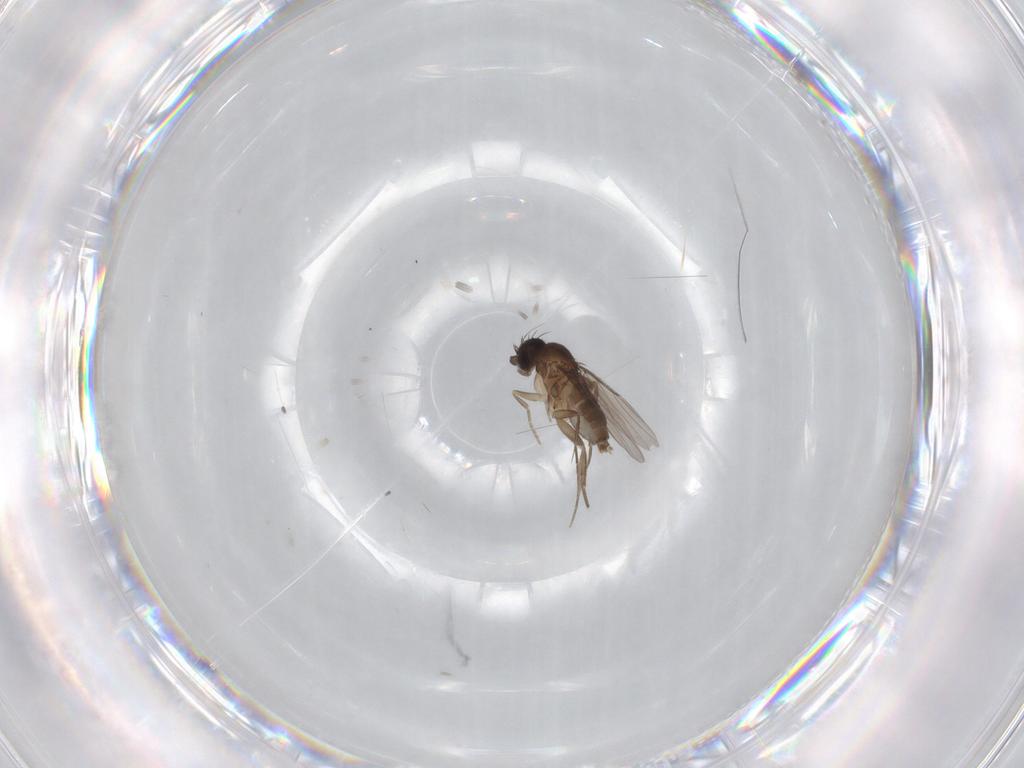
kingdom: Animalia
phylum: Arthropoda
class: Insecta
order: Diptera
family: Phoridae
